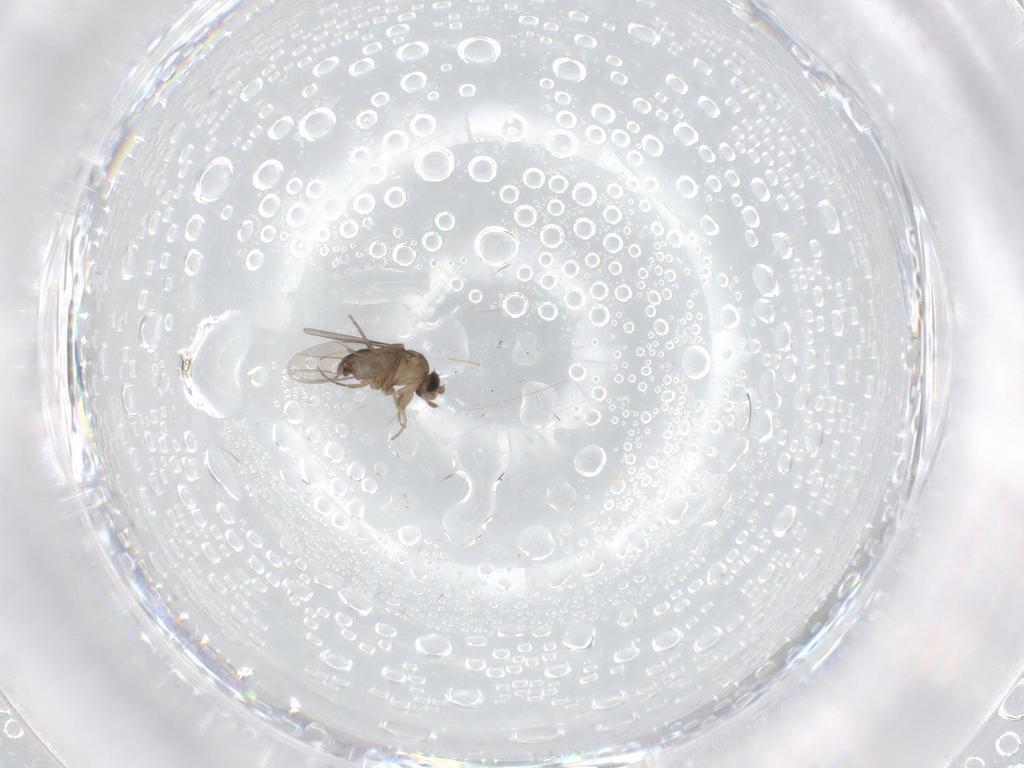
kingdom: Animalia
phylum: Arthropoda
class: Insecta
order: Diptera
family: Phoridae
